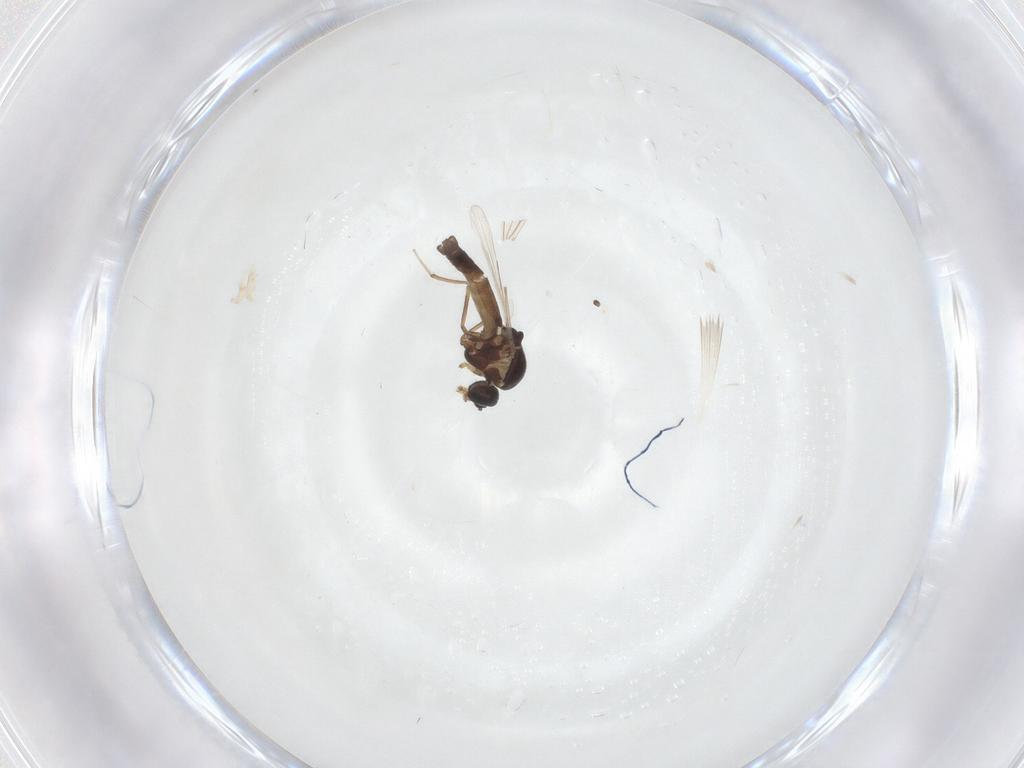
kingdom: Animalia
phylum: Arthropoda
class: Insecta
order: Diptera
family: Ceratopogonidae
